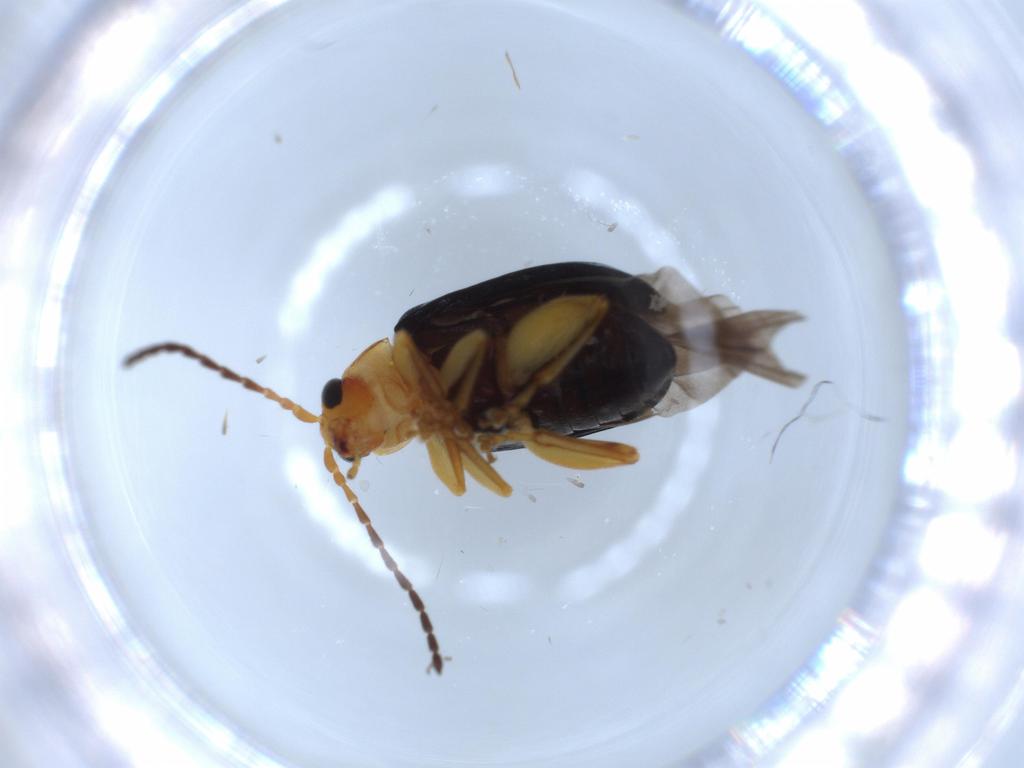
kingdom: Animalia
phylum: Arthropoda
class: Insecta
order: Coleoptera
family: Chrysomelidae
